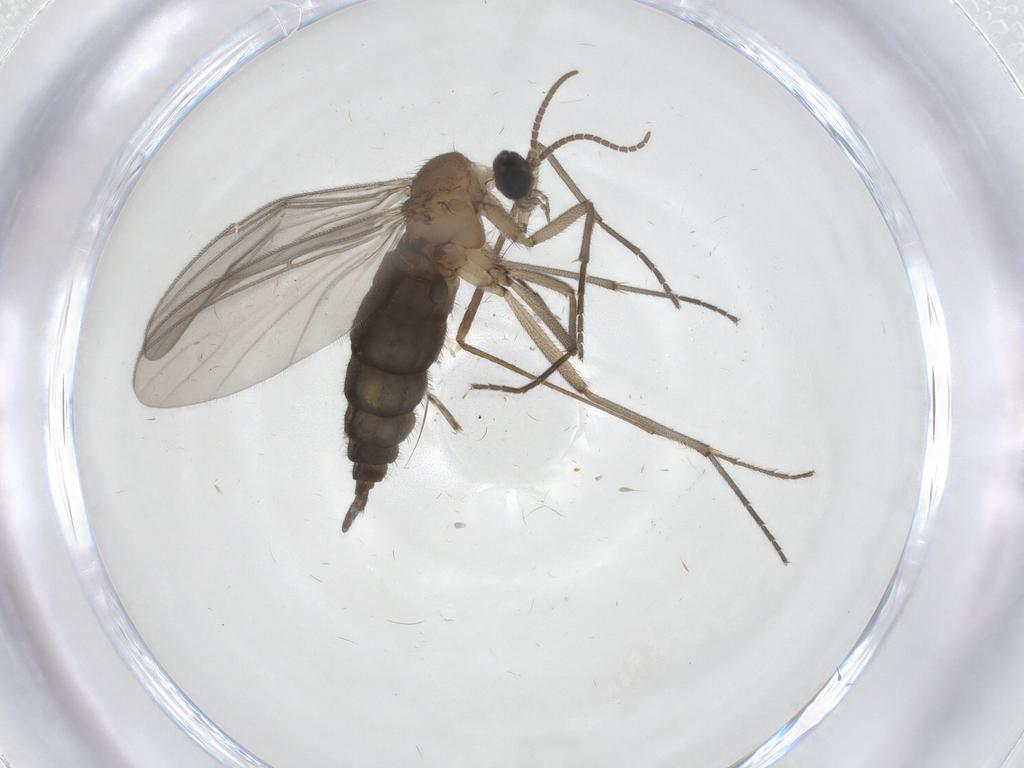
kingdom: Animalia
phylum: Arthropoda
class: Insecta
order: Diptera
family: Limoniidae
